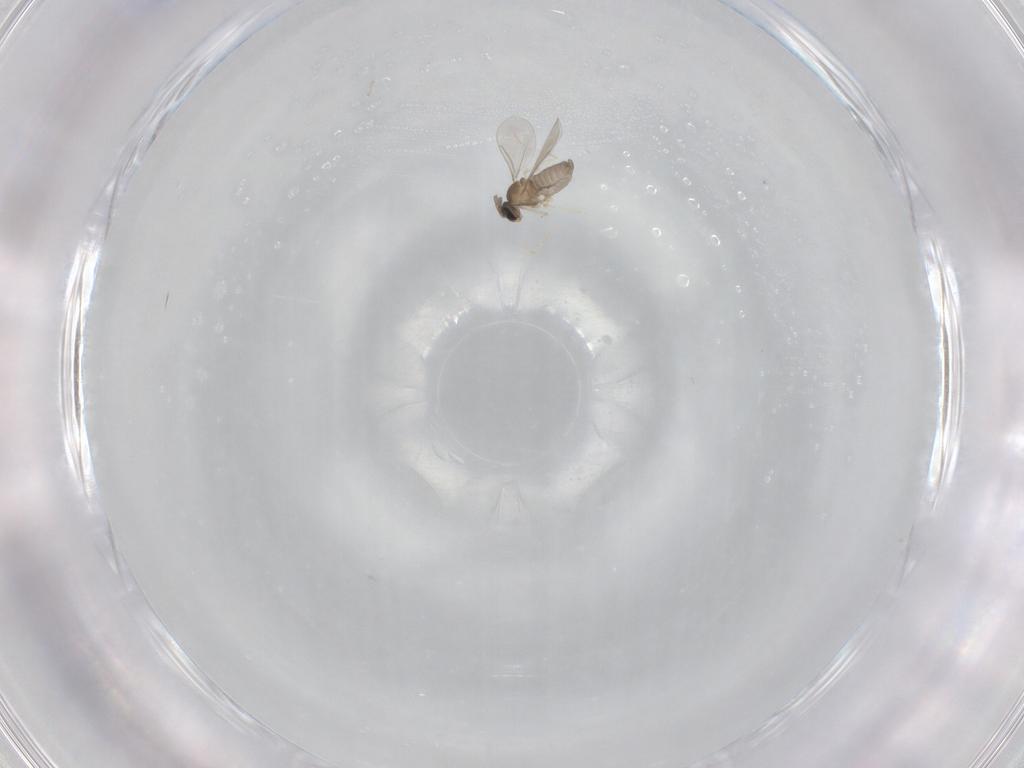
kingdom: Animalia
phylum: Arthropoda
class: Insecta
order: Diptera
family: Cecidomyiidae
